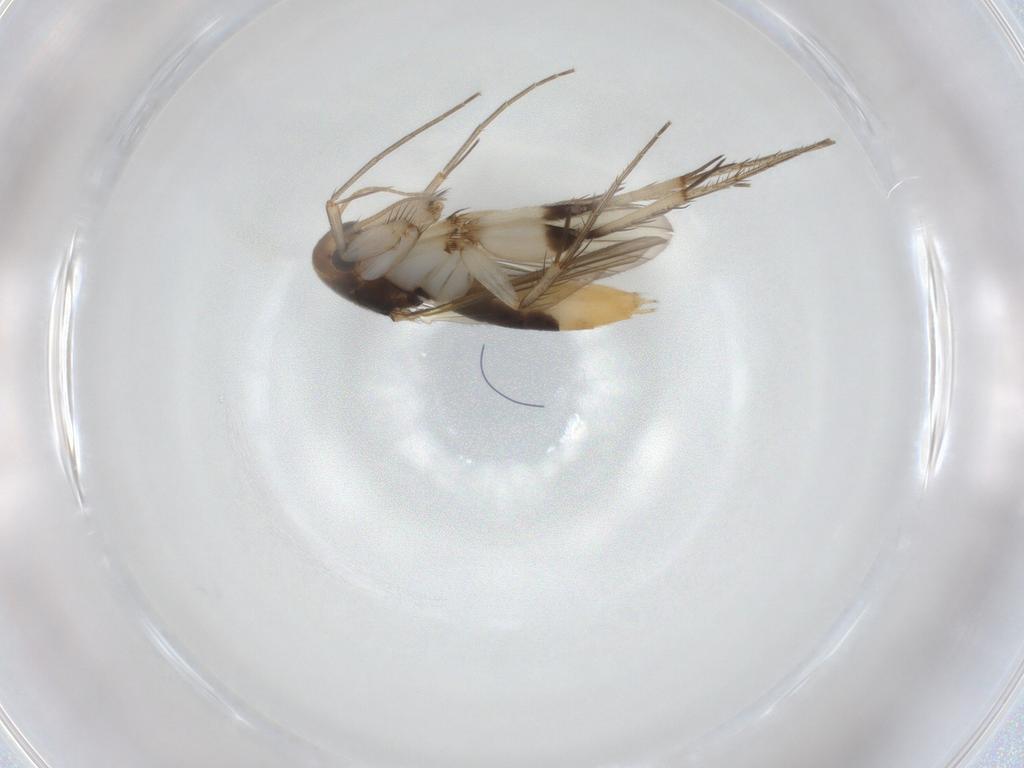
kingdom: Animalia
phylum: Arthropoda
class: Insecta
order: Diptera
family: Mycetophilidae
